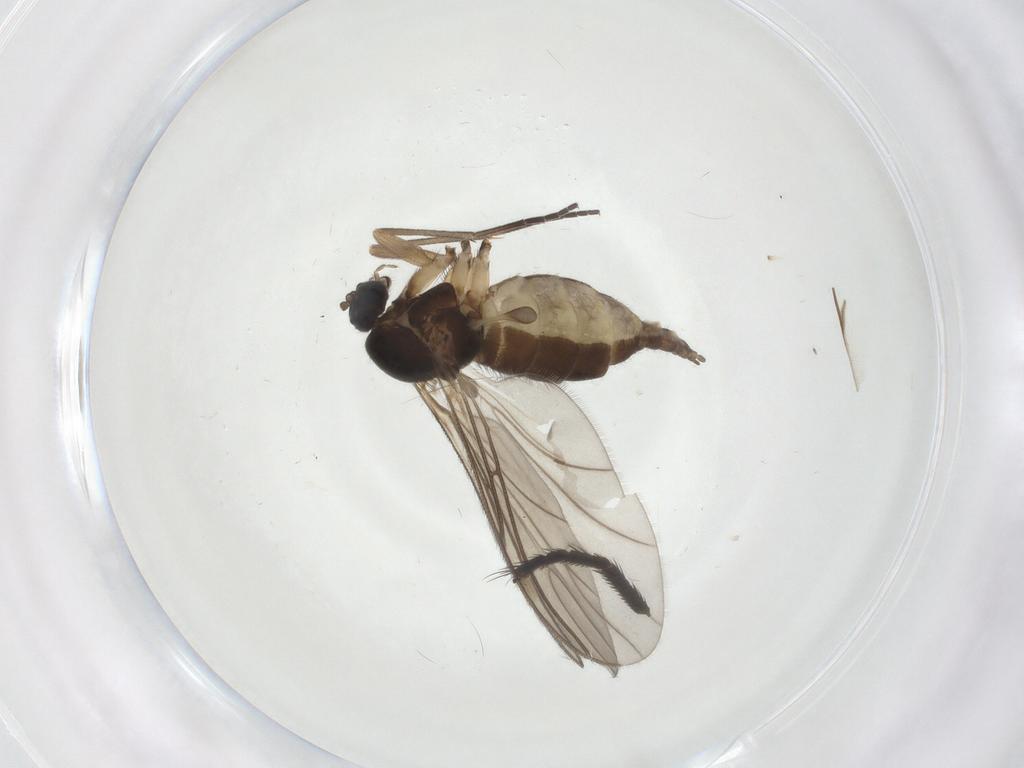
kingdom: Animalia
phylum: Arthropoda
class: Insecta
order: Diptera
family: Sciaridae
